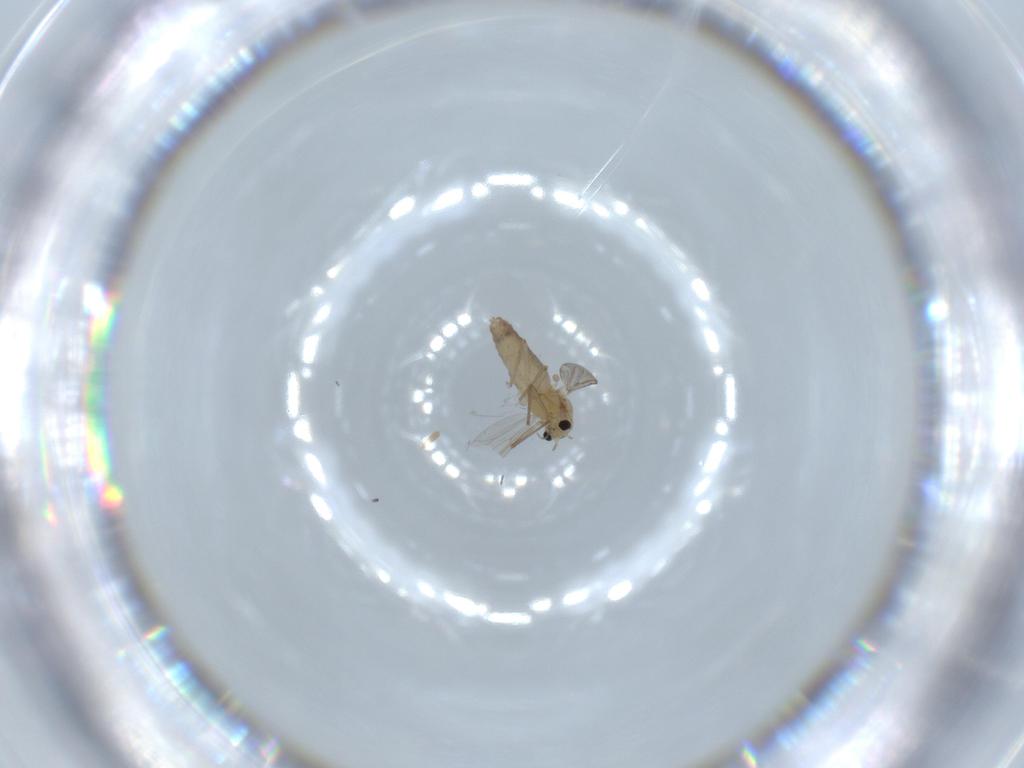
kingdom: Animalia
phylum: Arthropoda
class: Insecta
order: Diptera
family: Chironomidae
